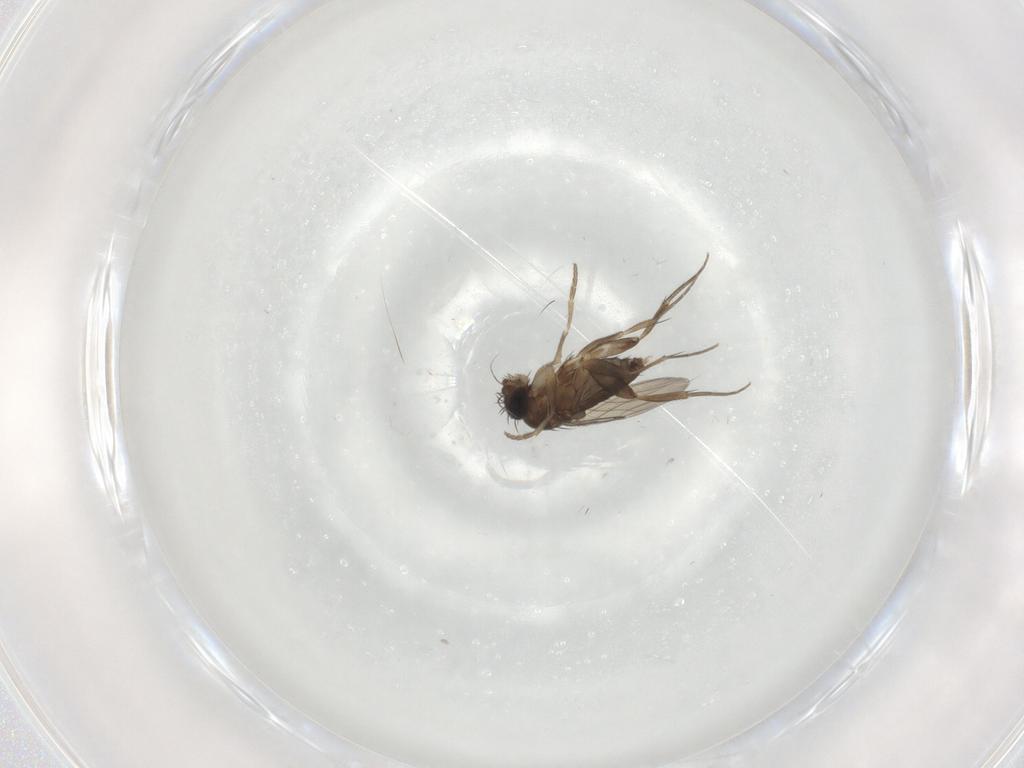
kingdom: Animalia
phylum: Arthropoda
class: Insecta
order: Diptera
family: Phoridae
